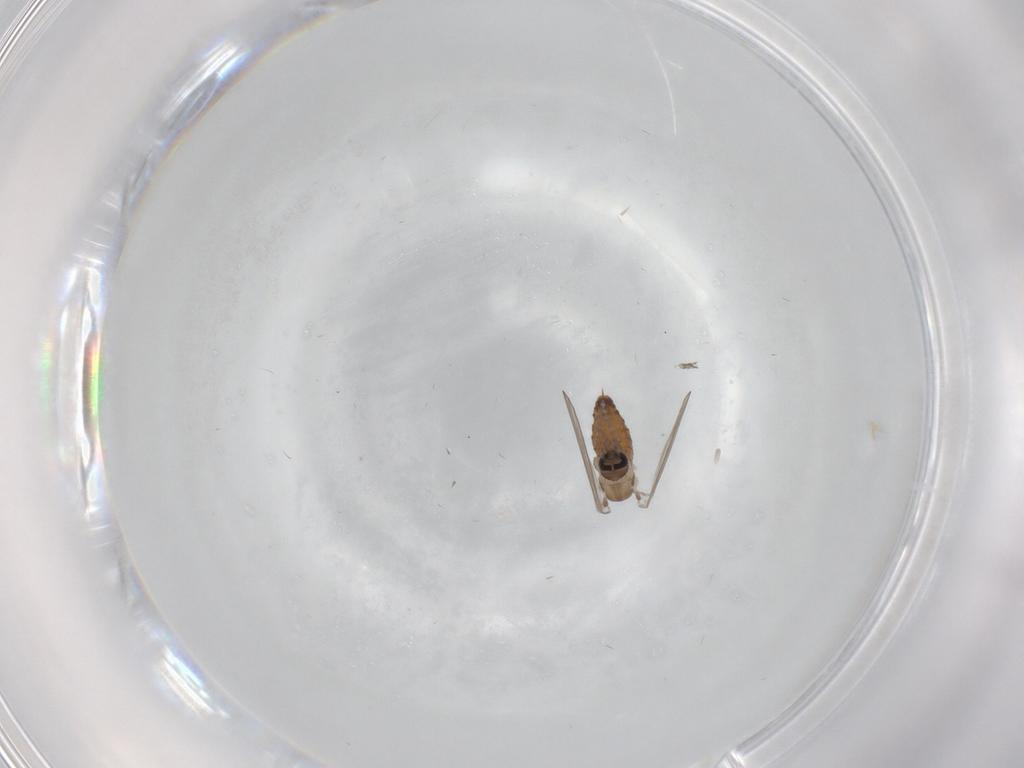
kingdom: Animalia
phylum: Arthropoda
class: Insecta
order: Diptera
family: Psychodidae
